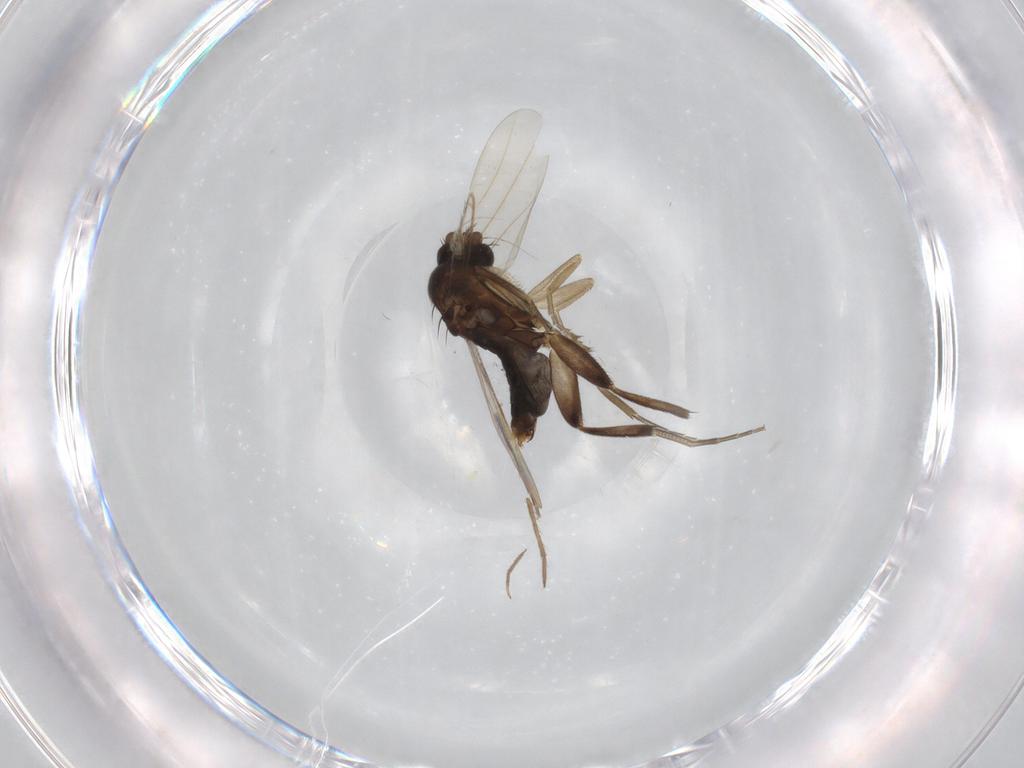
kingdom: Animalia
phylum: Arthropoda
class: Insecta
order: Diptera
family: Chironomidae
